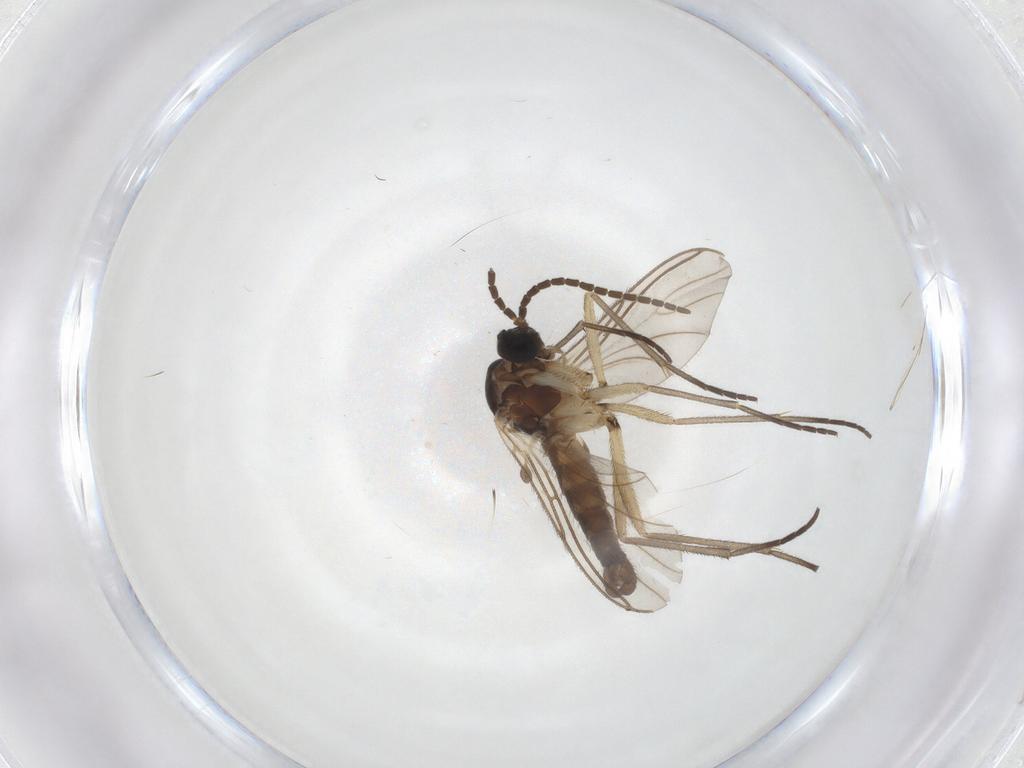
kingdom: Animalia
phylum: Arthropoda
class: Insecta
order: Diptera
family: Sciaridae
